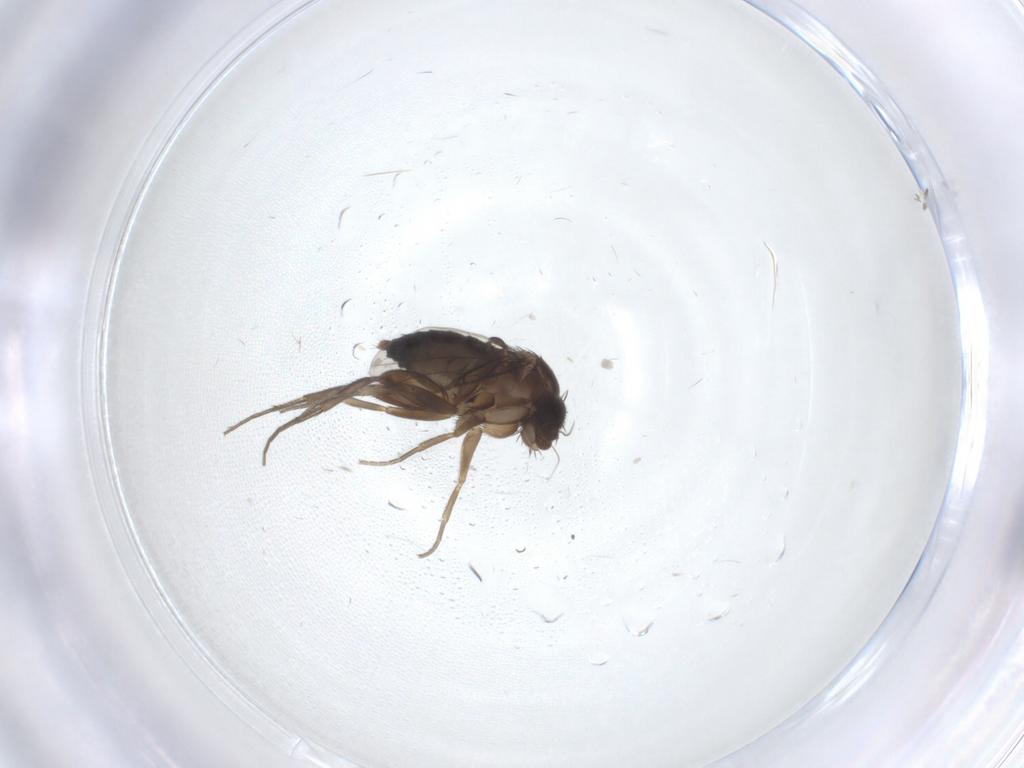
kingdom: Animalia
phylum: Arthropoda
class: Insecta
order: Diptera
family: Phoridae
